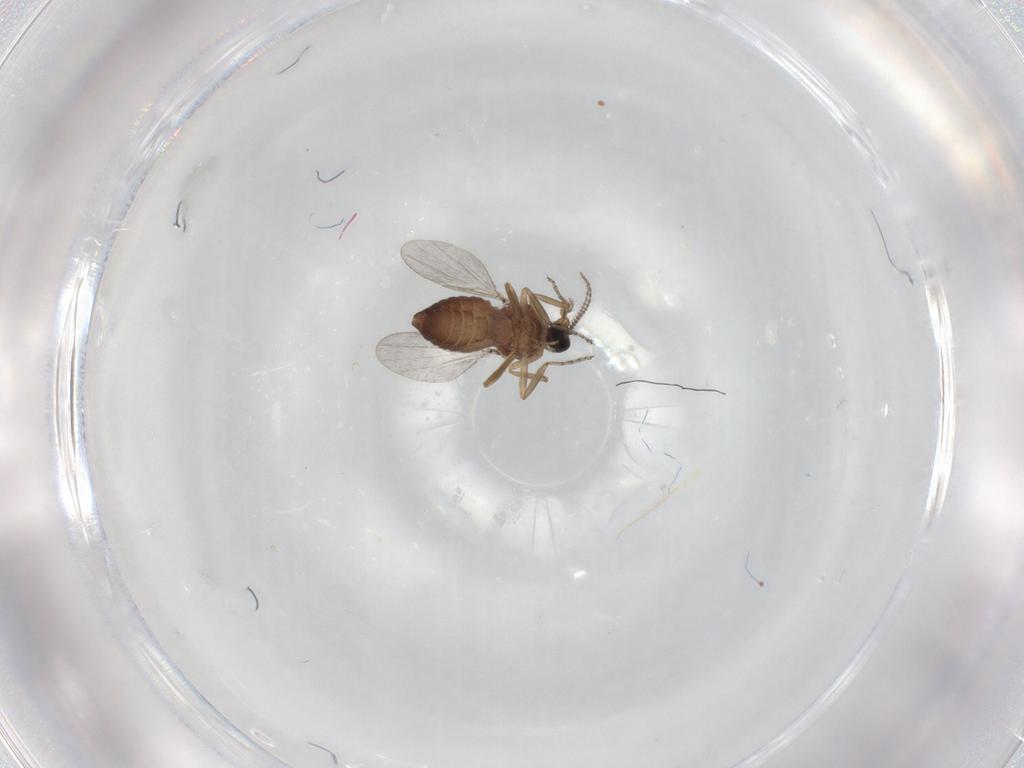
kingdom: Animalia
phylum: Arthropoda
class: Insecta
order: Diptera
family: Ceratopogonidae
